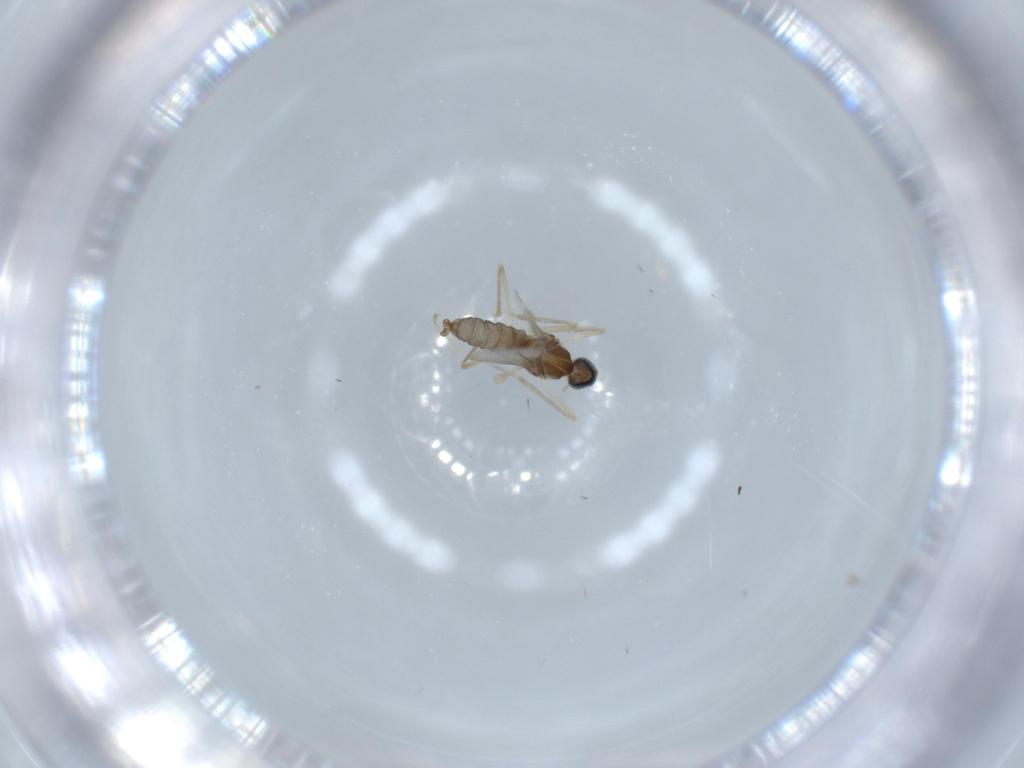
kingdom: Animalia
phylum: Arthropoda
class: Insecta
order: Diptera
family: Cecidomyiidae
